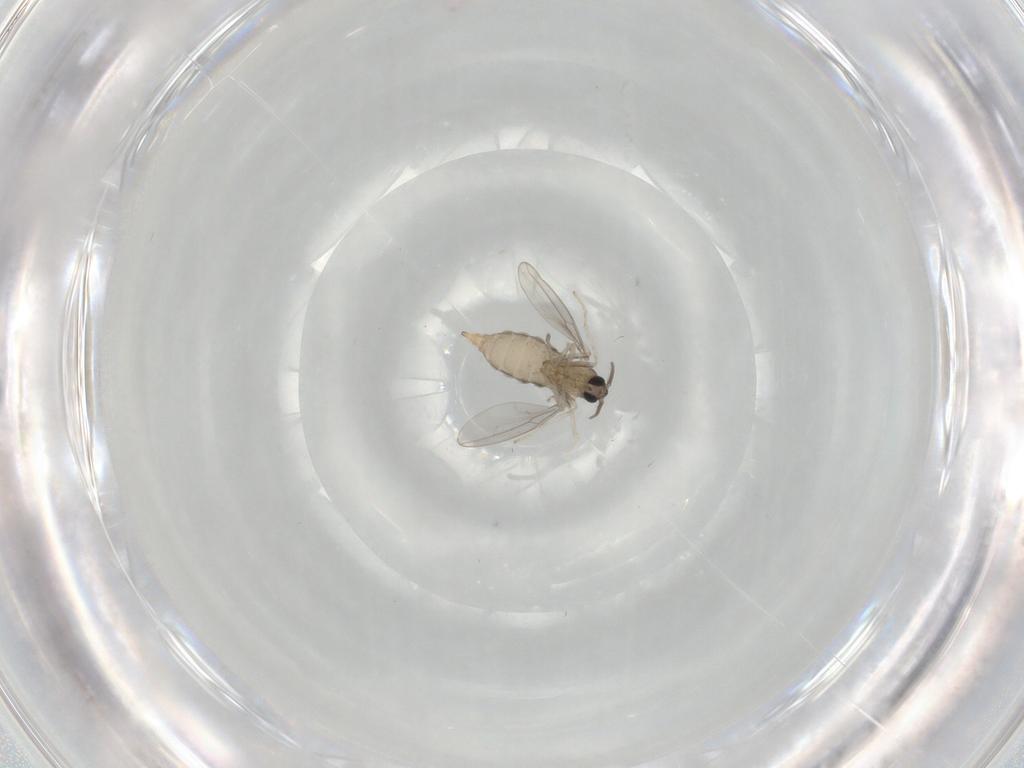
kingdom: Animalia
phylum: Arthropoda
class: Insecta
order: Diptera
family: Cecidomyiidae
